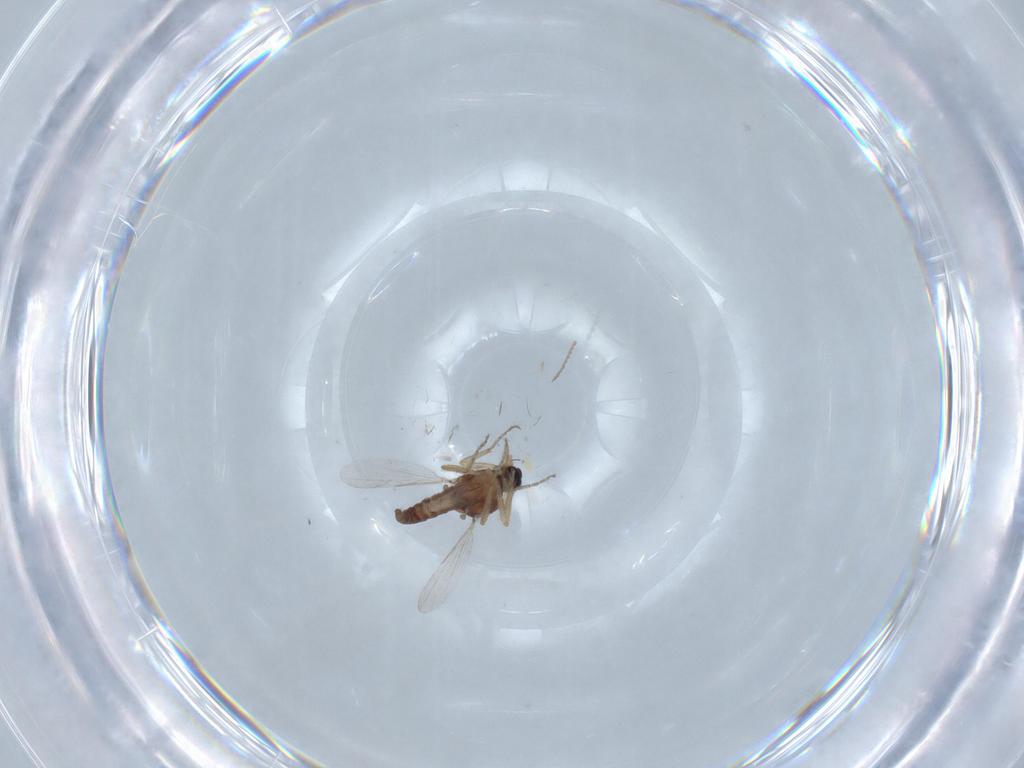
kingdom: Animalia
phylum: Arthropoda
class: Insecta
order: Diptera
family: Ceratopogonidae
